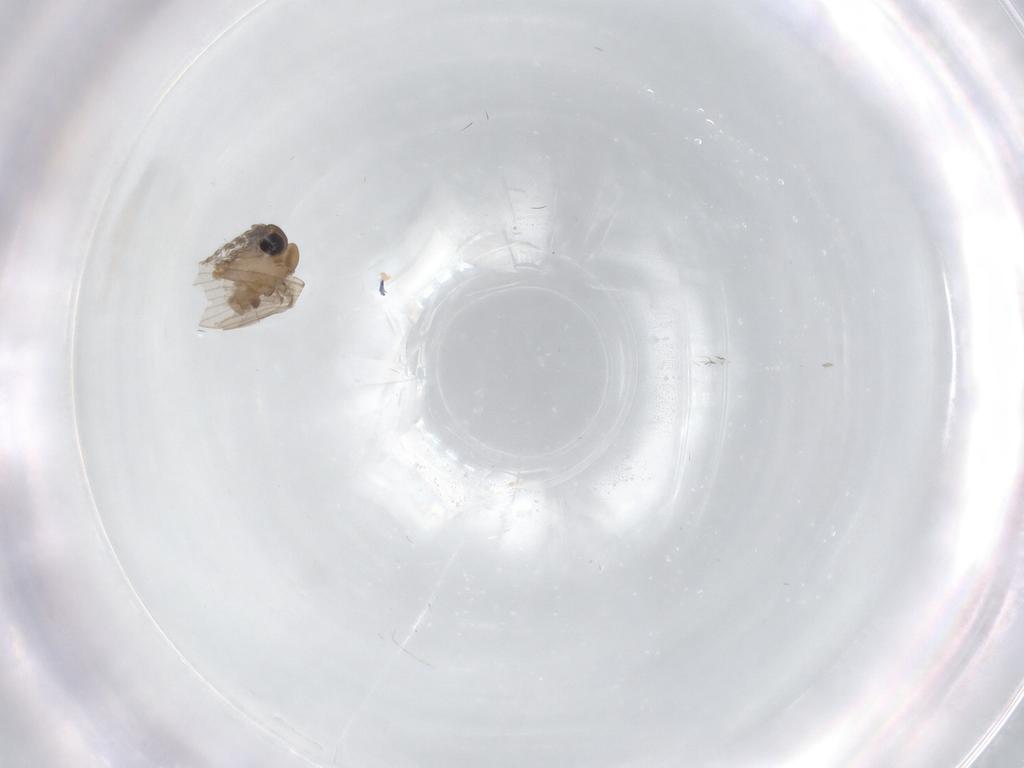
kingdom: Animalia
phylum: Arthropoda
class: Insecta
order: Diptera
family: Psychodidae
